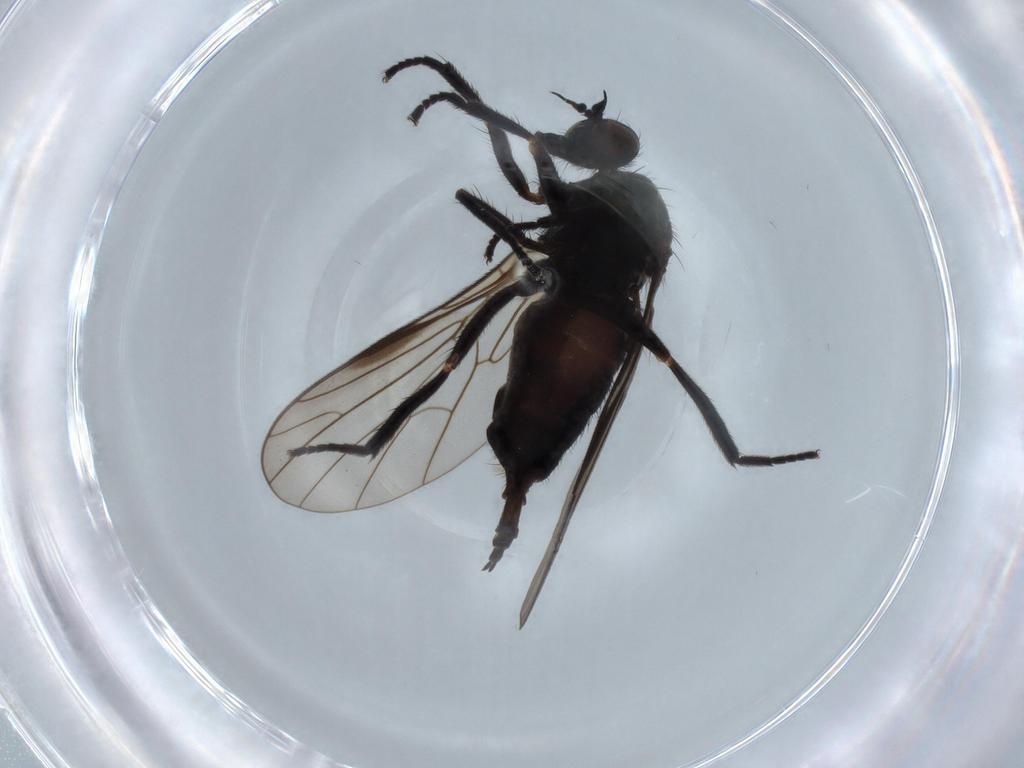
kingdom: Animalia
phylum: Arthropoda
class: Insecta
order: Diptera
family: Empididae
